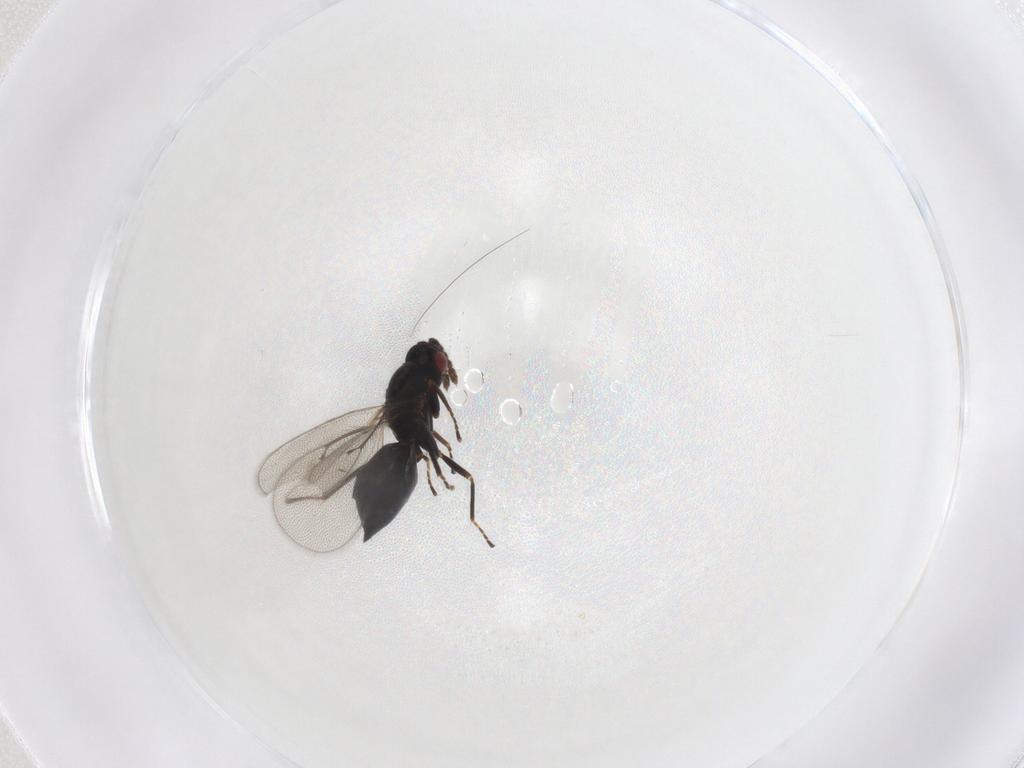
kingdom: Animalia
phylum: Arthropoda
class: Insecta
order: Hymenoptera
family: Eulophidae
